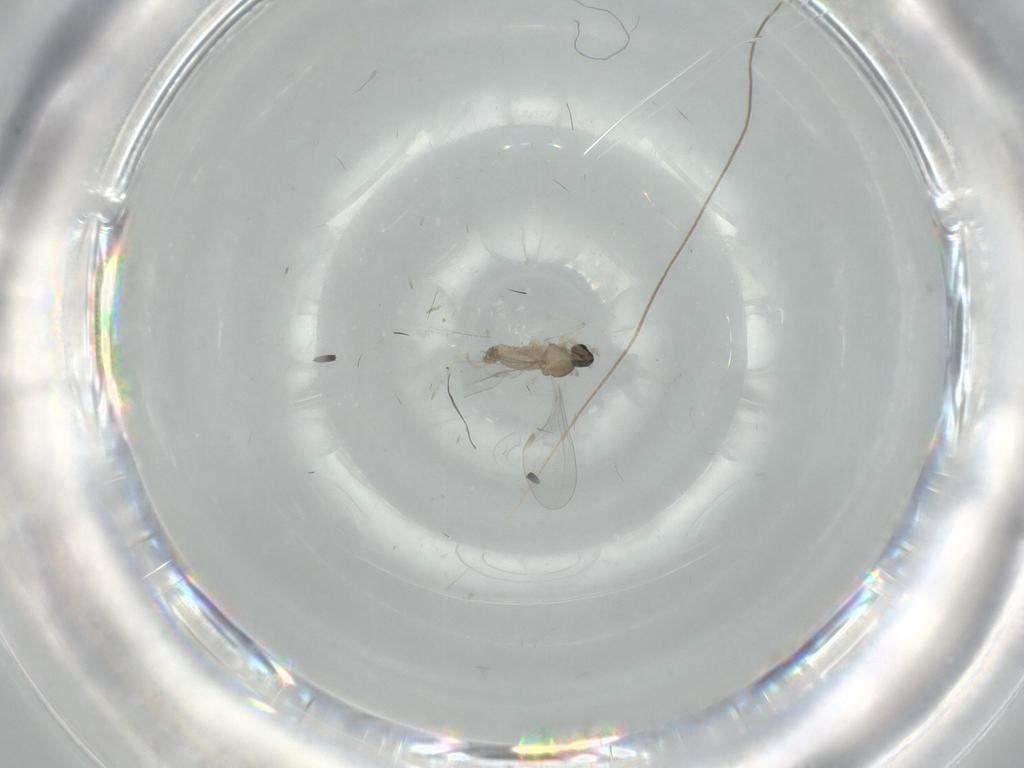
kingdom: Animalia
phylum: Arthropoda
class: Insecta
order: Diptera
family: Cecidomyiidae
